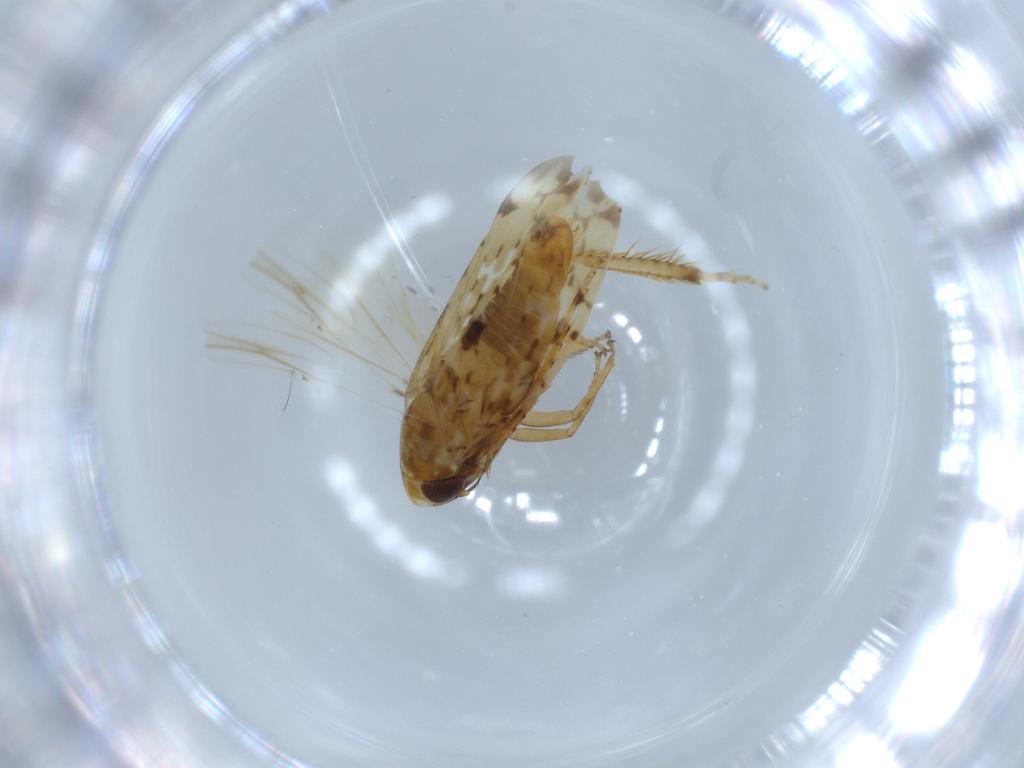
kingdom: Animalia
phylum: Arthropoda
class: Insecta
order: Hemiptera
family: Cicadellidae
